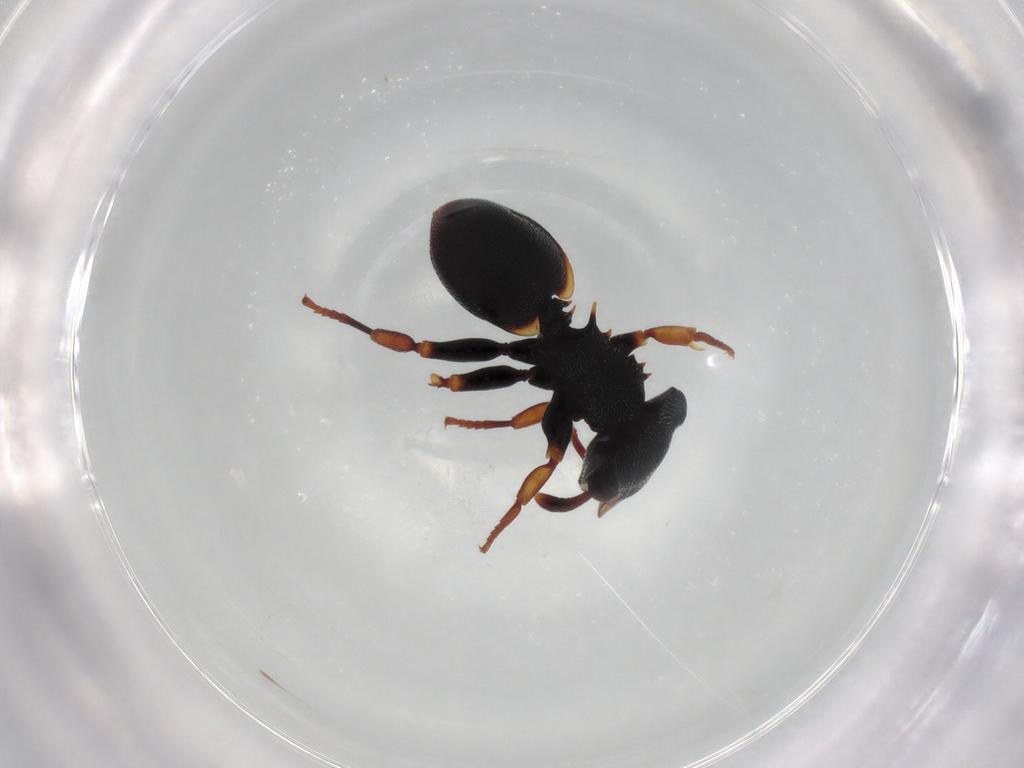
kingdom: Animalia
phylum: Arthropoda
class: Insecta
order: Hymenoptera
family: Formicidae
